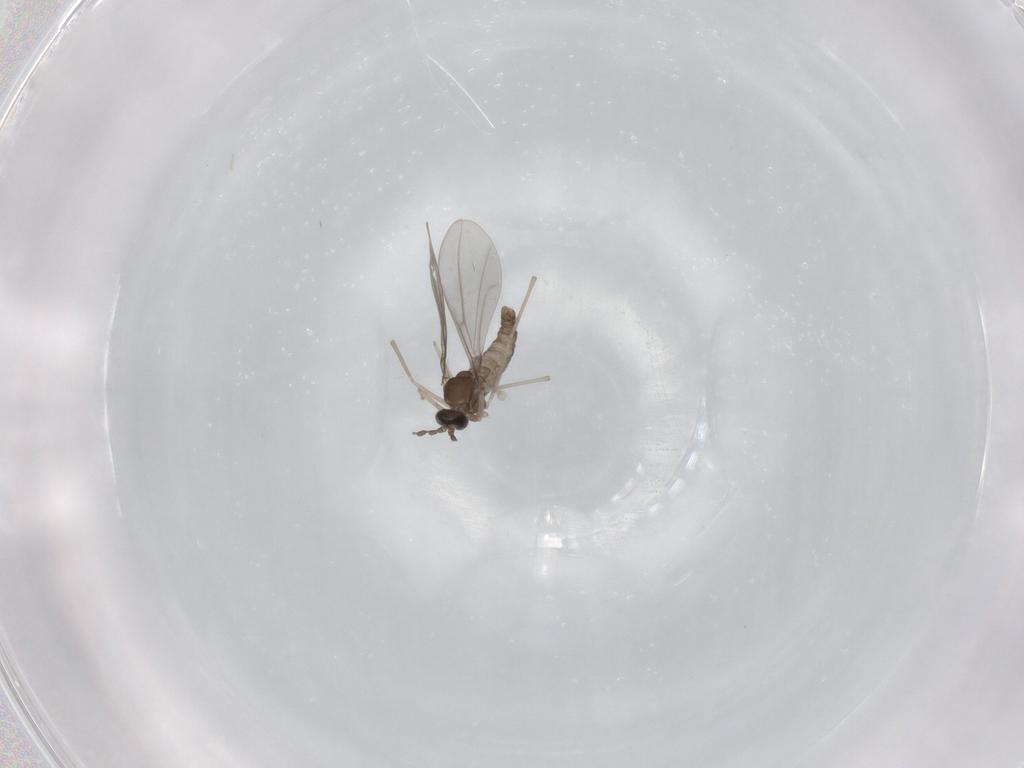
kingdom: Animalia
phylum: Arthropoda
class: Insecta
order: Diptera
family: Cecidomyiidae
